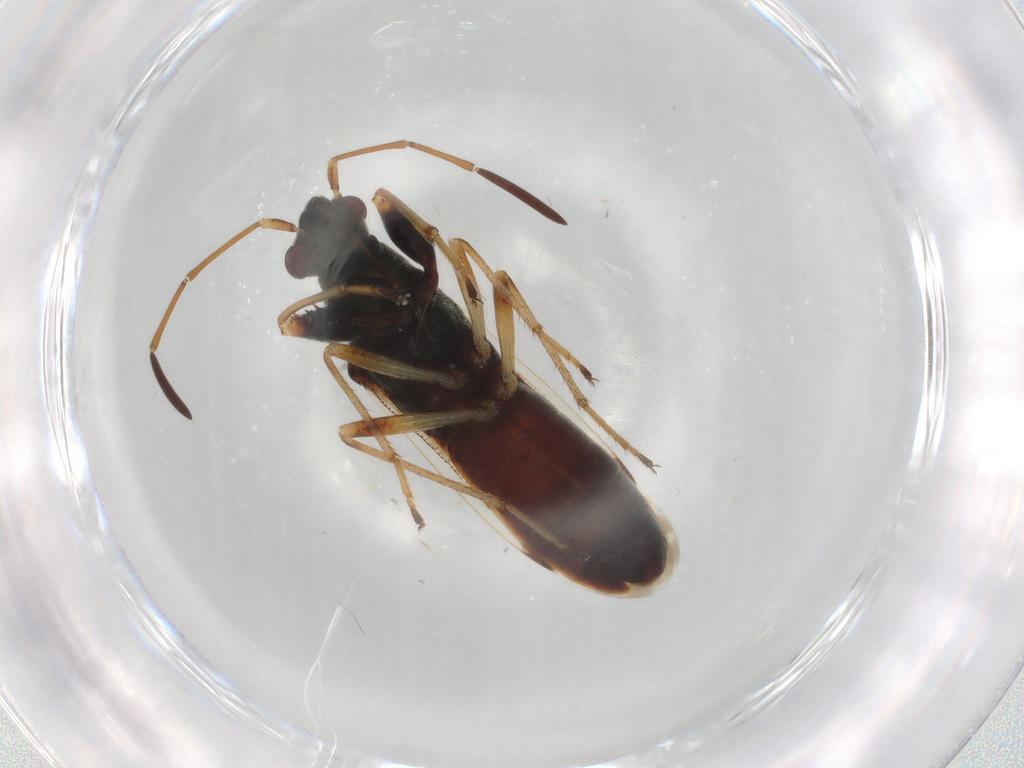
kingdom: Animalia
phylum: Arthropoda
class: Insecta
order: Hemiptera
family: Rhyparochromidae
